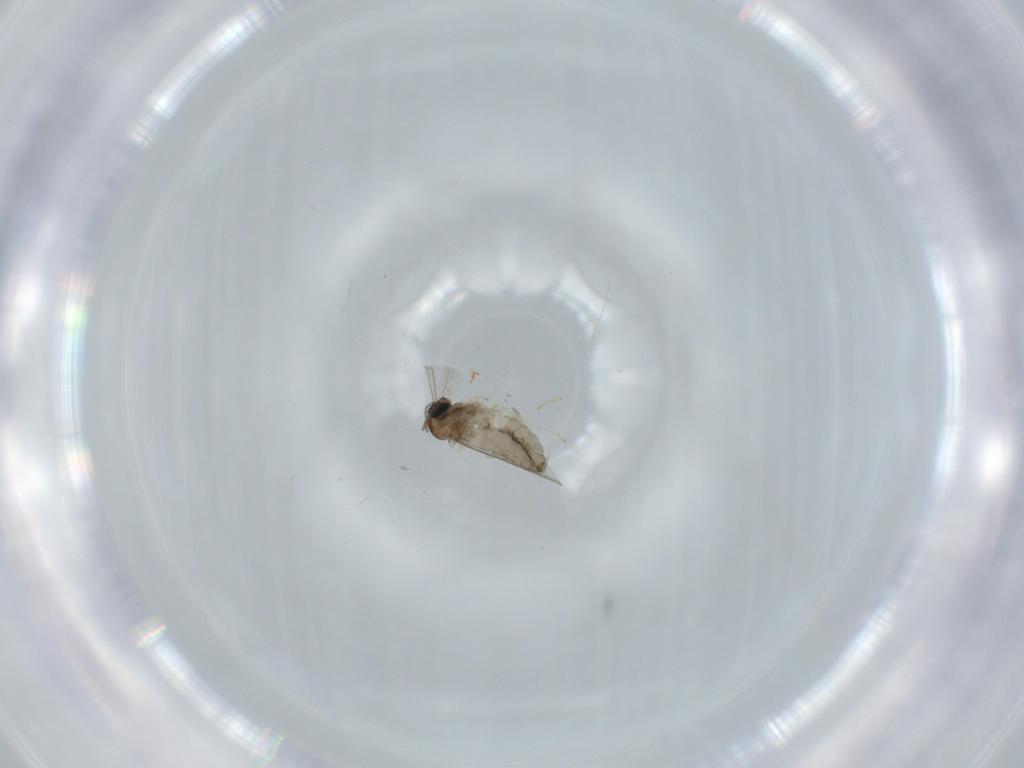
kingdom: Animalia
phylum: Arthropoda
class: Insecta
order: Diptera
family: Cecidomyiidae
